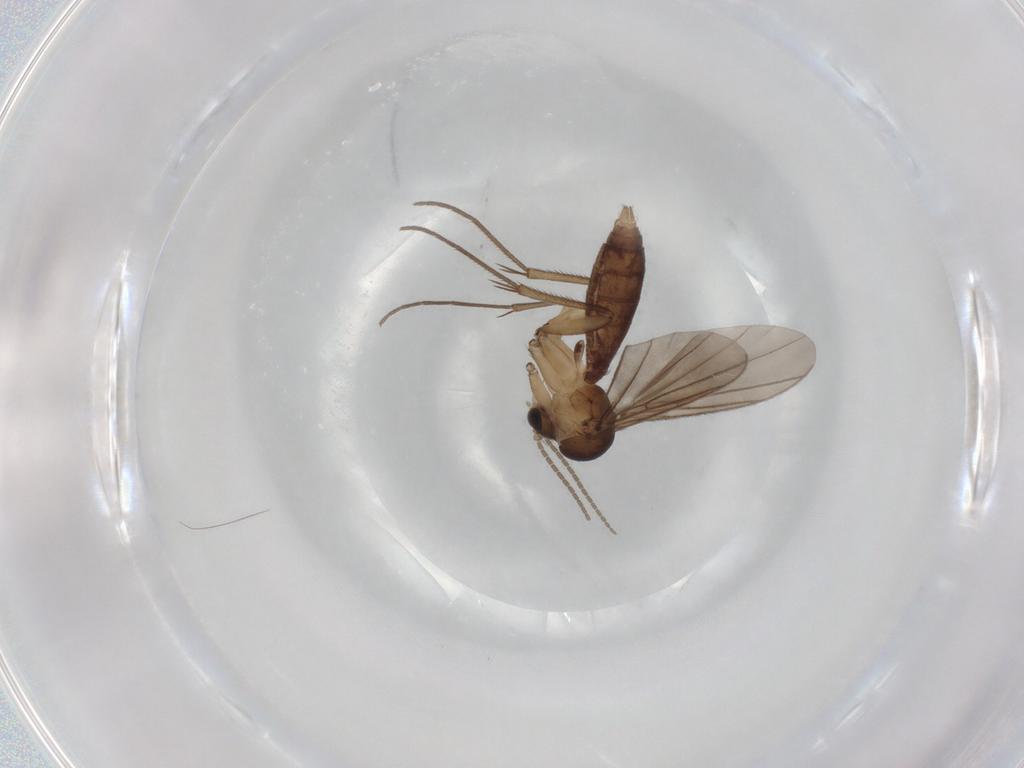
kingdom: Animalia
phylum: Arthropoda
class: Insecta
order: Diptera
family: Mycetophilidae
